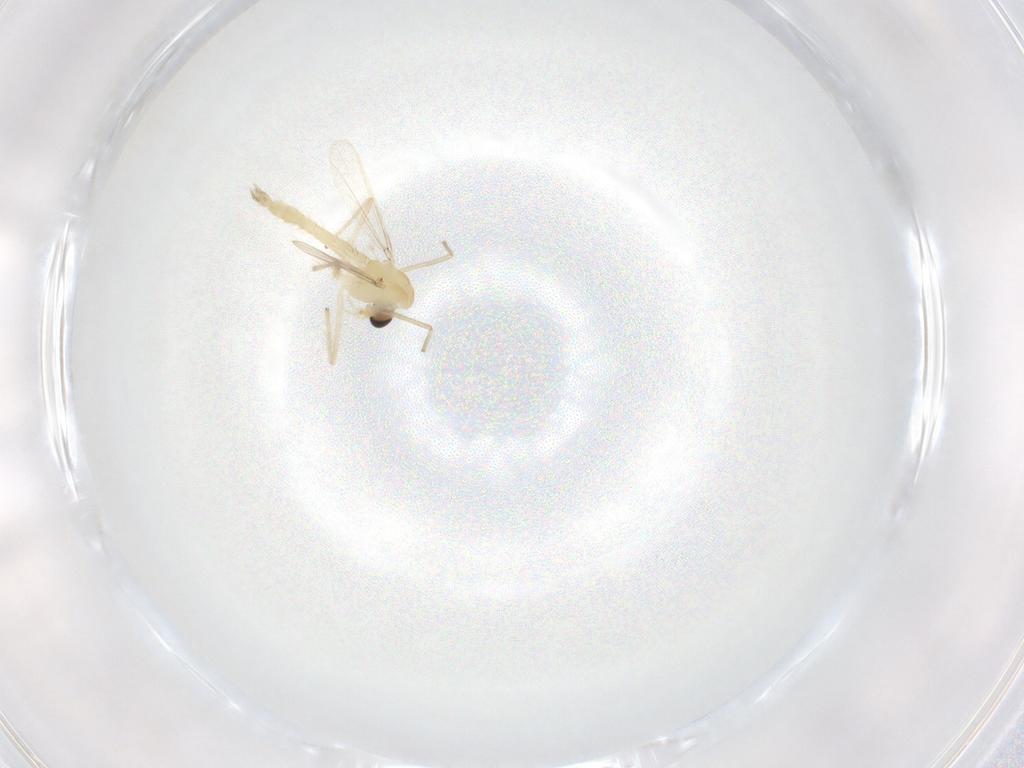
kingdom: Animalia
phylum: Arthropoda
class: Insecta
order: Diptera
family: Chironomidae
